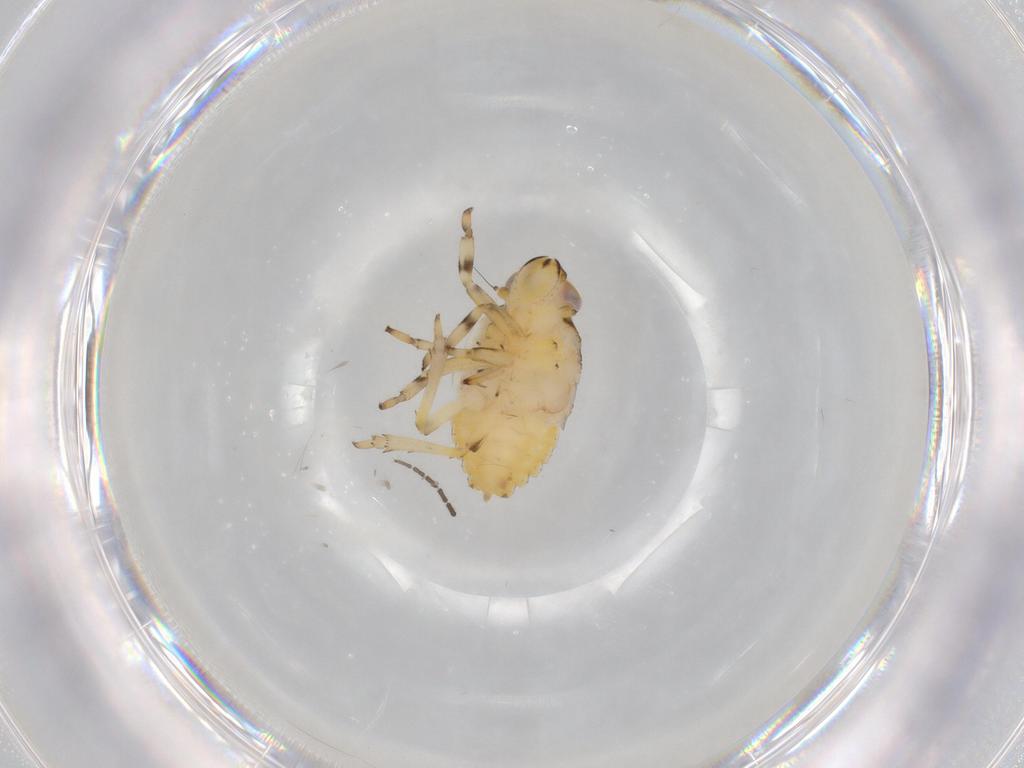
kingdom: Animalia
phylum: Arthropoda
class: Insecta
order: Hemiptera
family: Issidae
